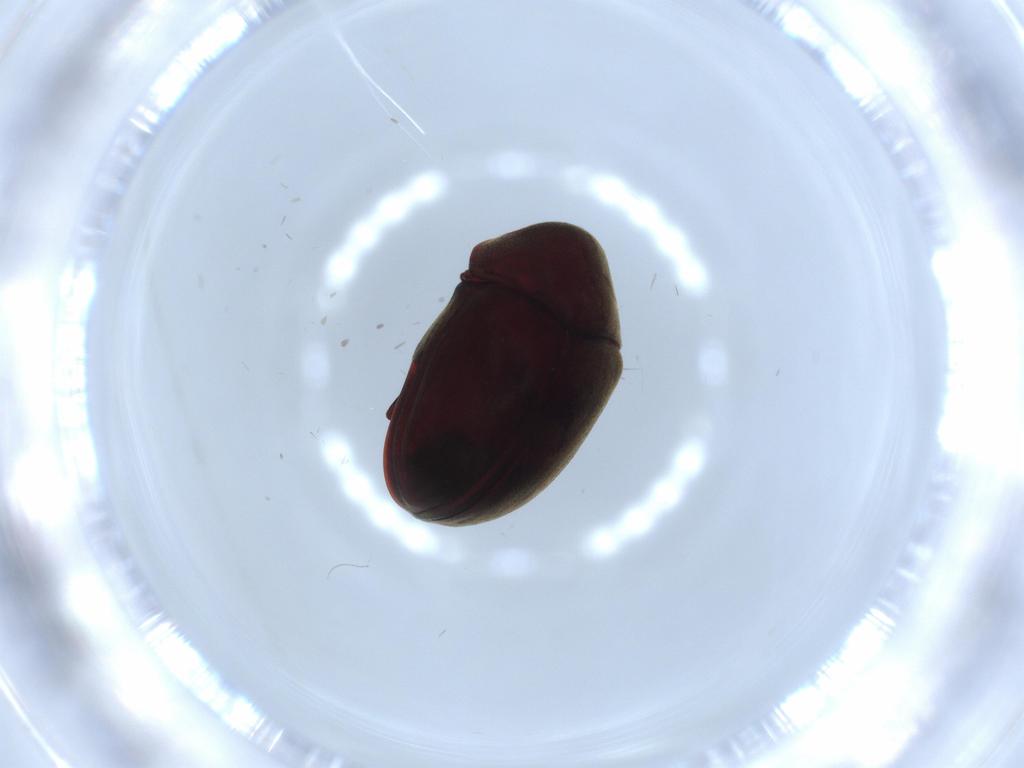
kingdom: Animalia
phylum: Arthropoda
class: Insecta
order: Coleoptera
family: Ptinidae
